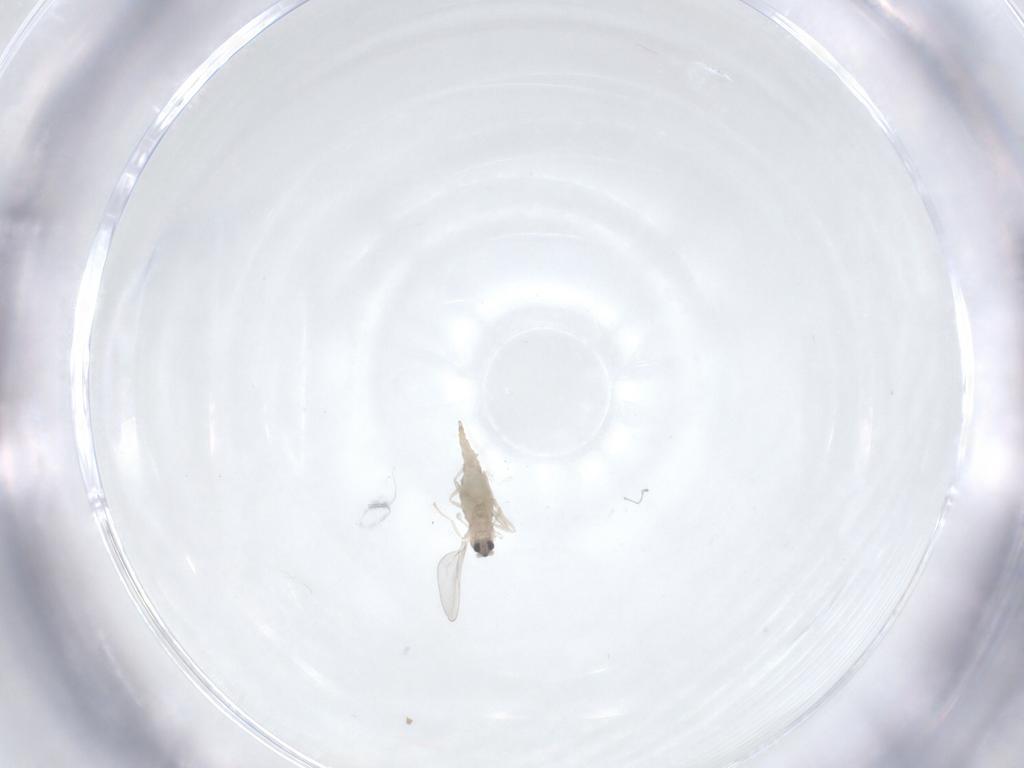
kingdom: Animalia
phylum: Arthropoda
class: Insecta
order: Diptera
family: Cecidomyiidae
